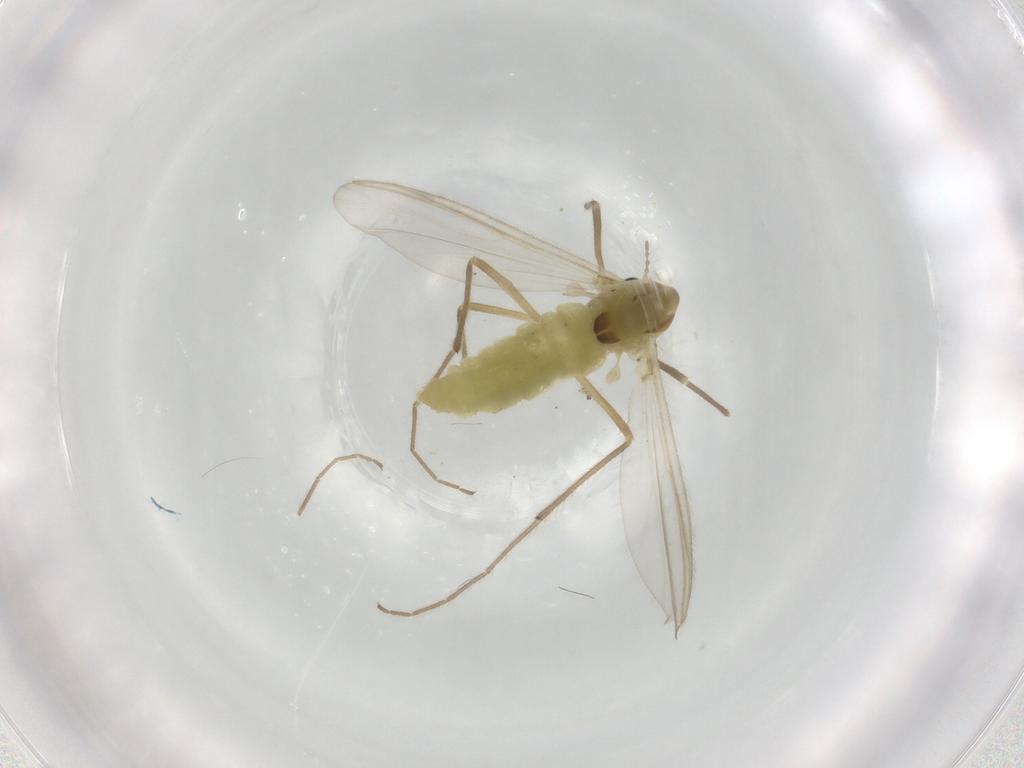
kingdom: Animalia
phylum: Arthropoda
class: Insecta
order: Diptera
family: Chironomidae
